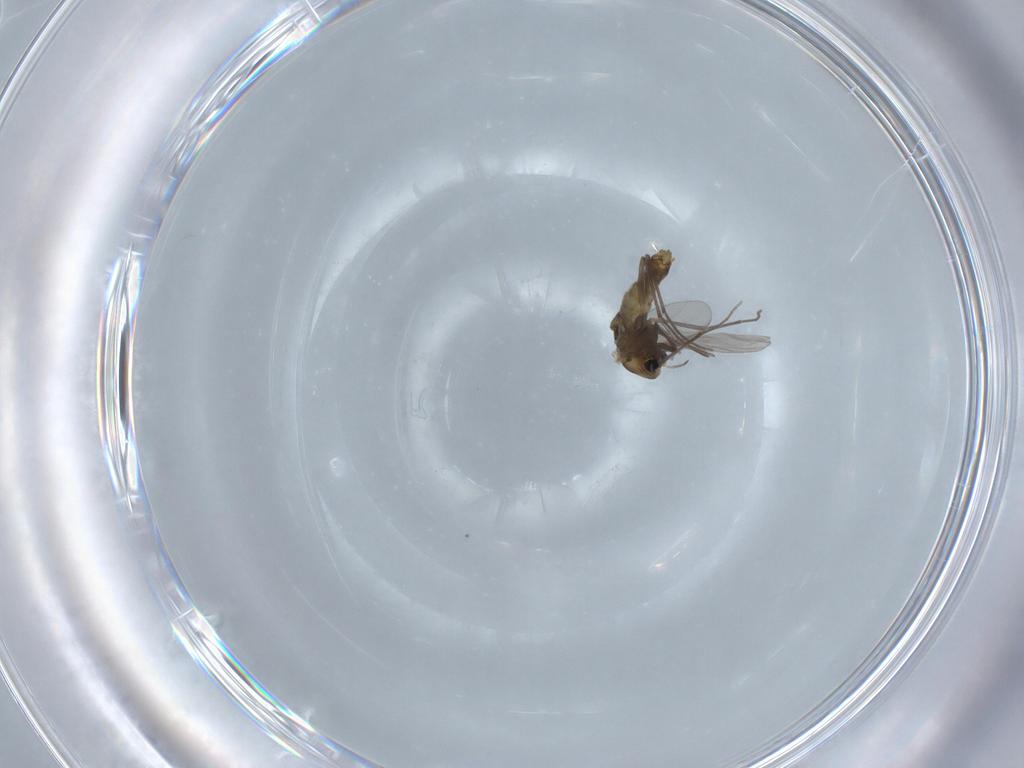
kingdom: Animalia
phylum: Arthropoda
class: Insecta
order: Diptera
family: Chironomidae
